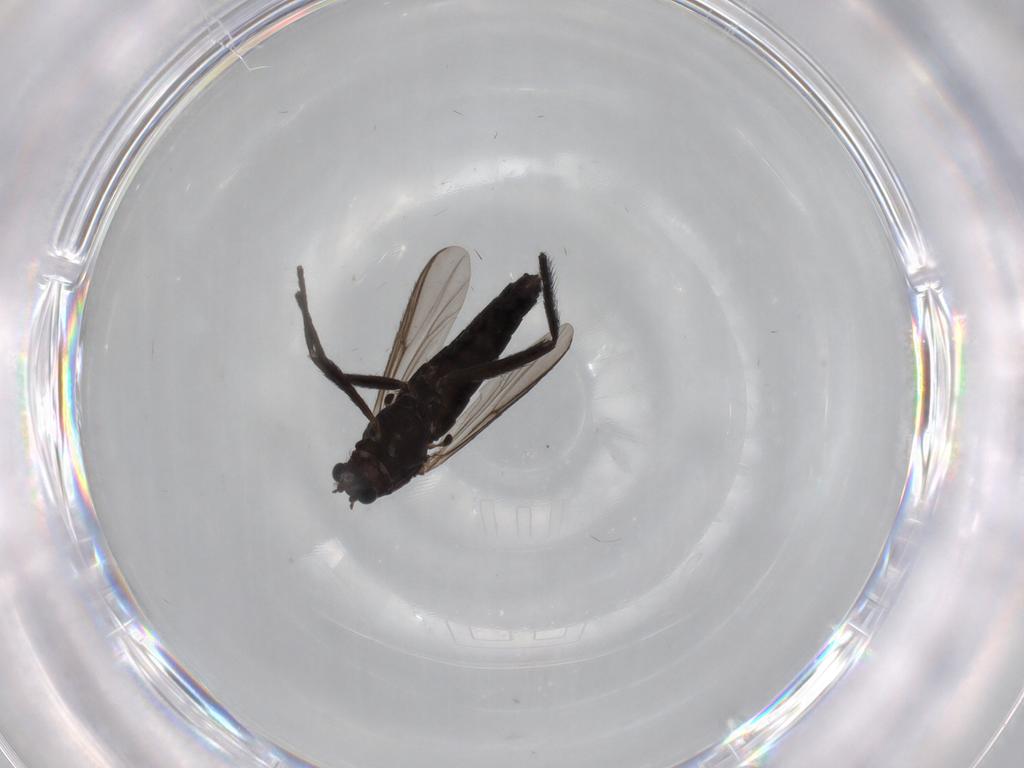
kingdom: Animalia
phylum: Arthropoda
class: Insecta
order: Diptera
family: Chironomidae
